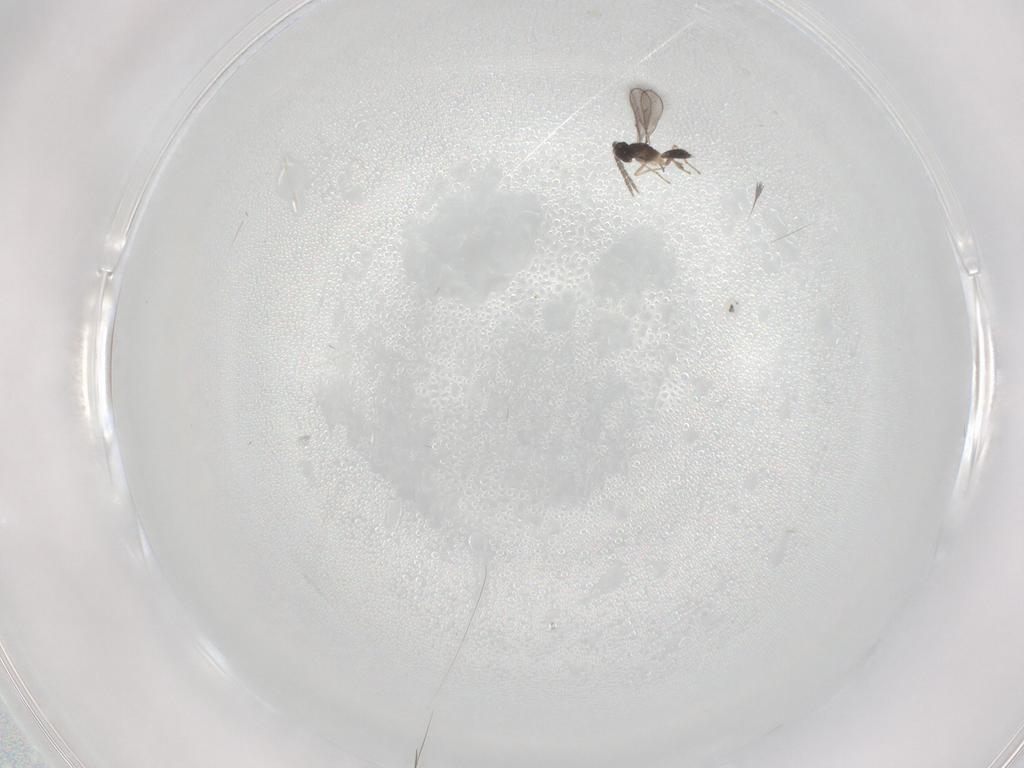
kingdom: Animalia
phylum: Arthropoda
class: Insecta
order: Hymenoptera
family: Eulophidae
